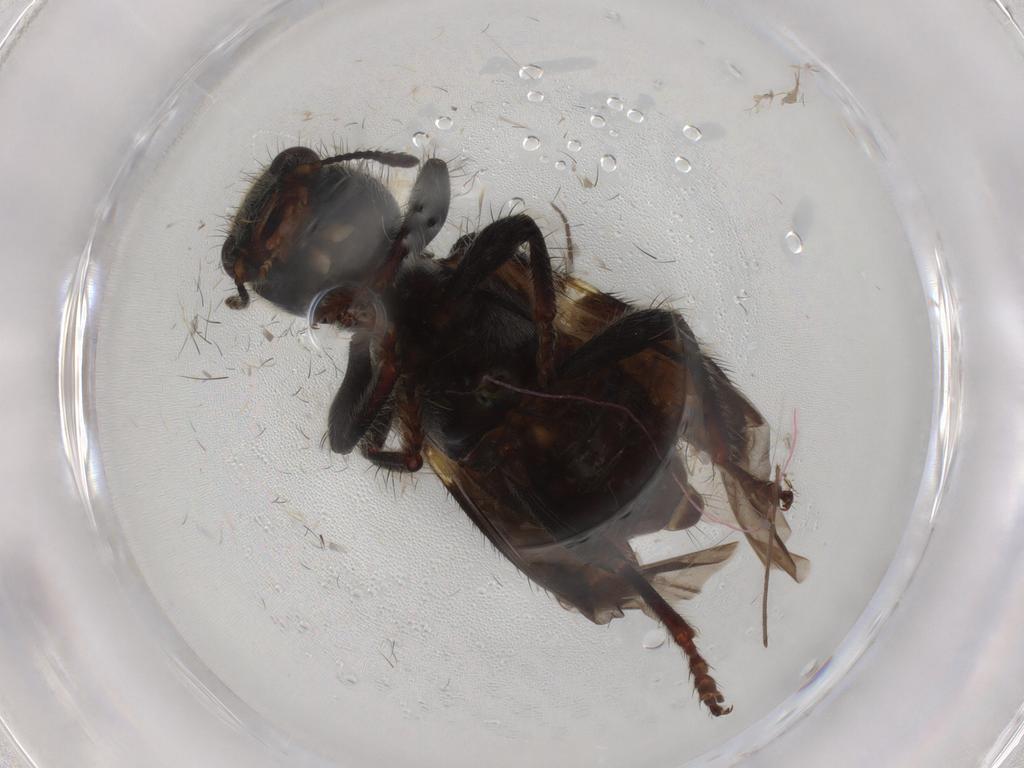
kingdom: Animalia
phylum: Arthropoda
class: Insecta
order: Coleoptera
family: Cleridae
